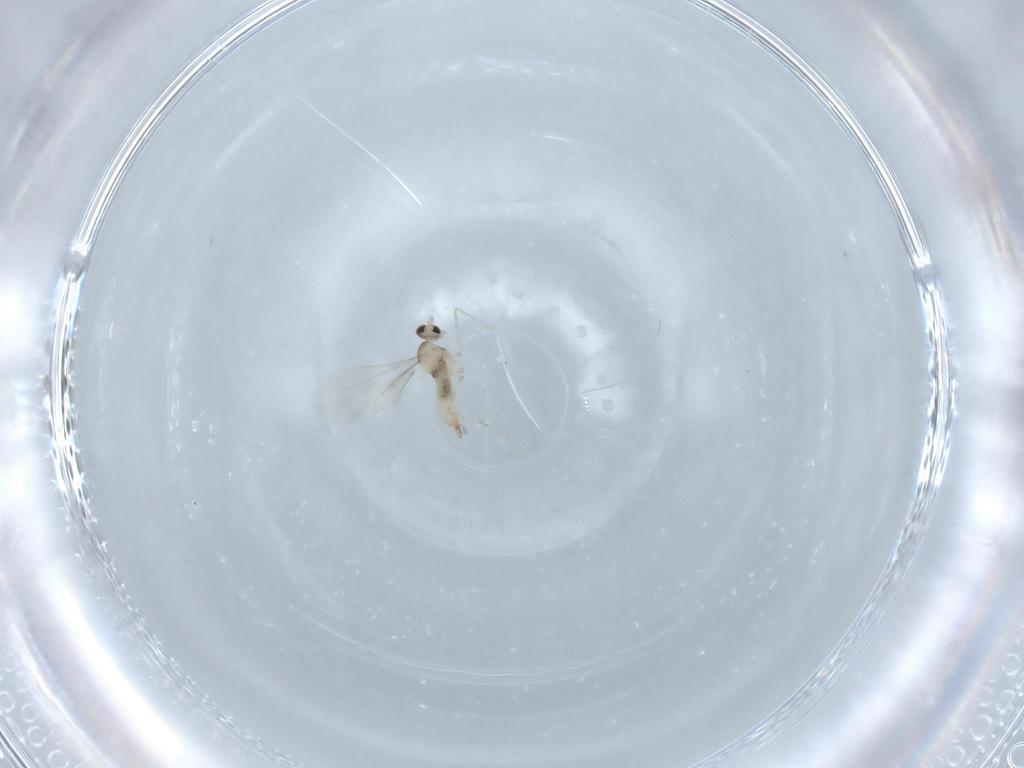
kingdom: Animalia
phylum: Arthropoda
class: Insecta
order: Diptera
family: Cecidomyiidae
